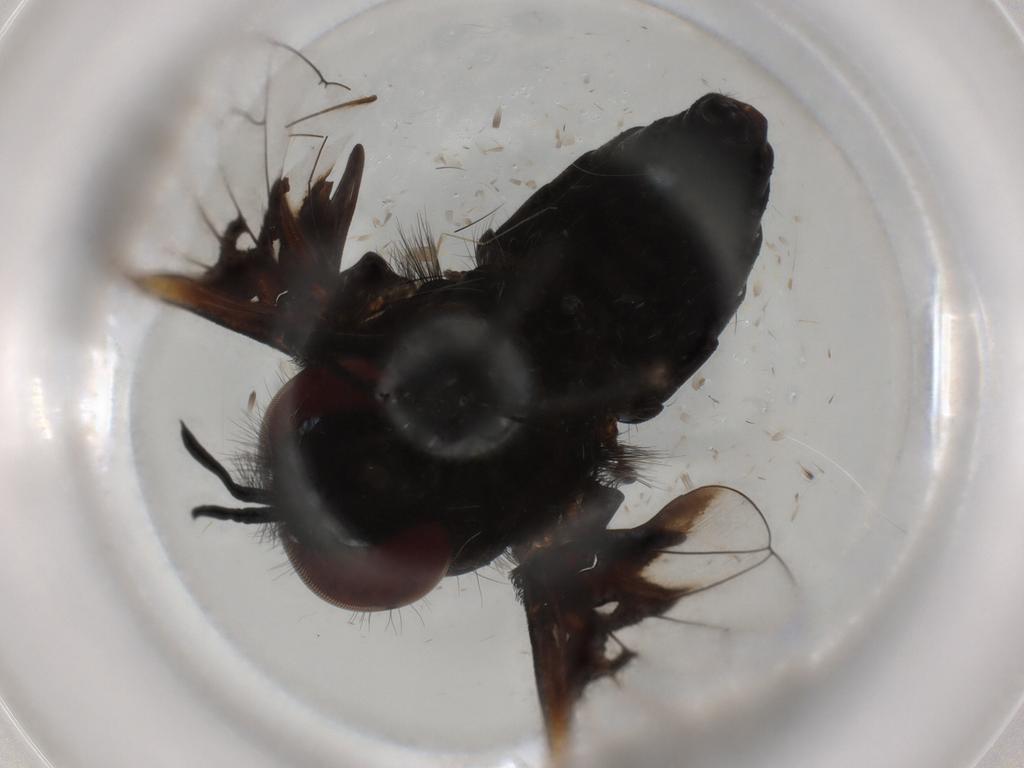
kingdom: Animalia
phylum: Arthropoda
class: Insecta
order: Diptera
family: Bombyliidae
